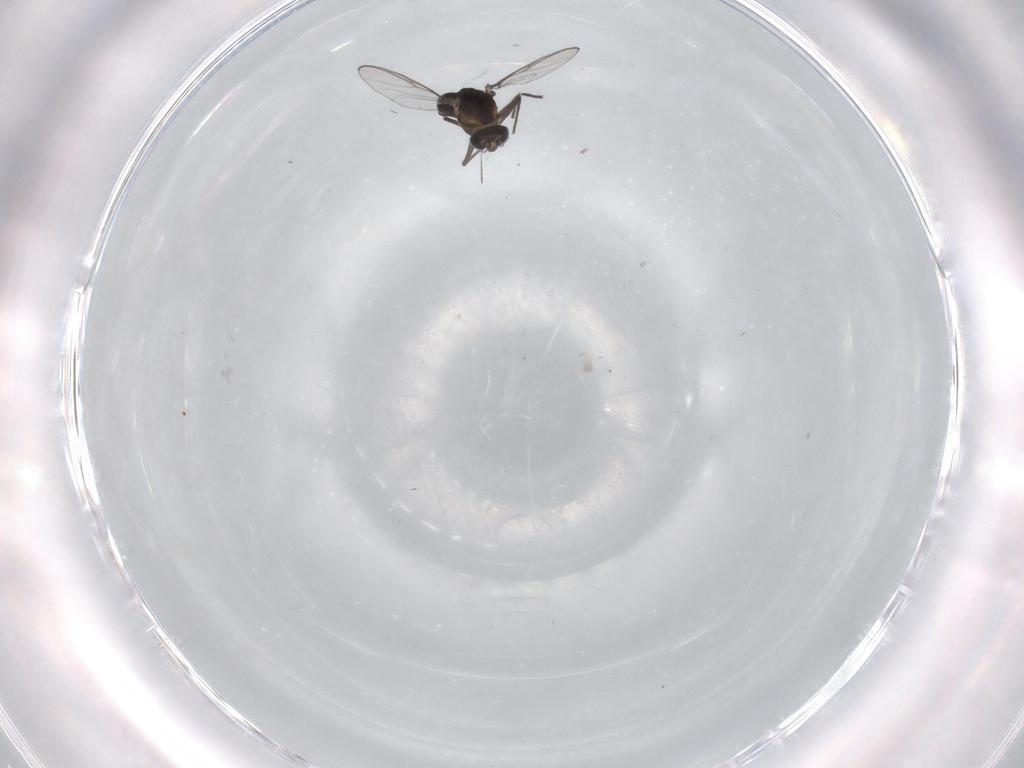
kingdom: Animalia
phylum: Arthropoda
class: Insecta
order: Diptera
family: Chironomidae
